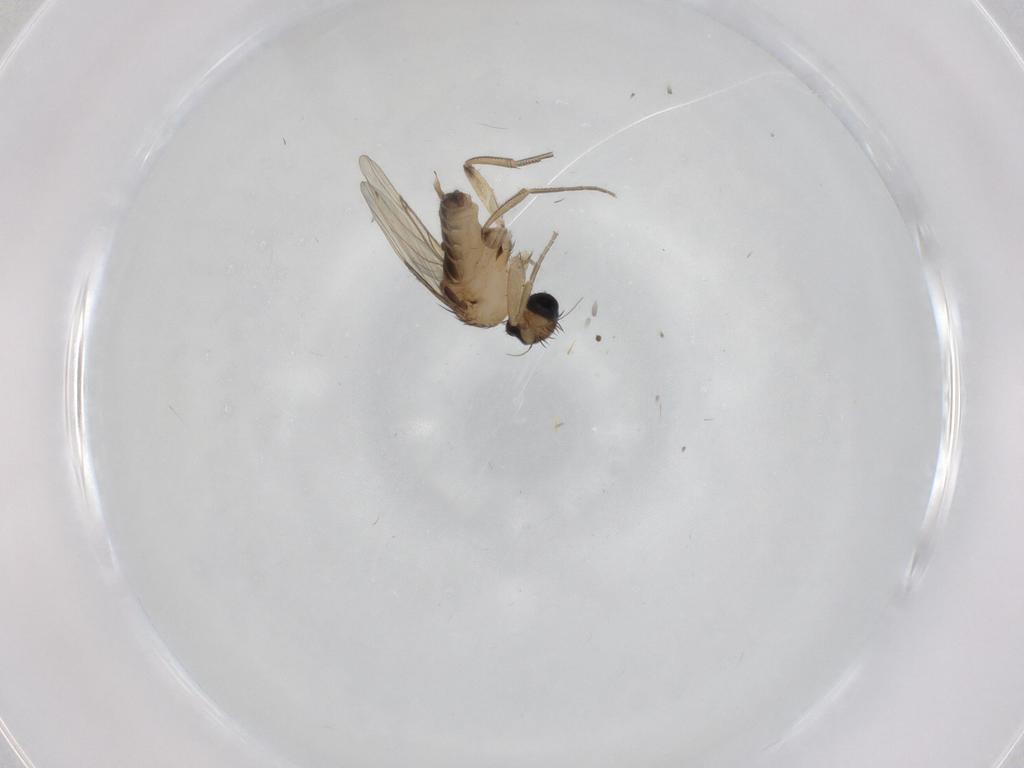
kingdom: Animalia
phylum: Arthropoda
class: Insecta
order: Diptera
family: Phoridae
